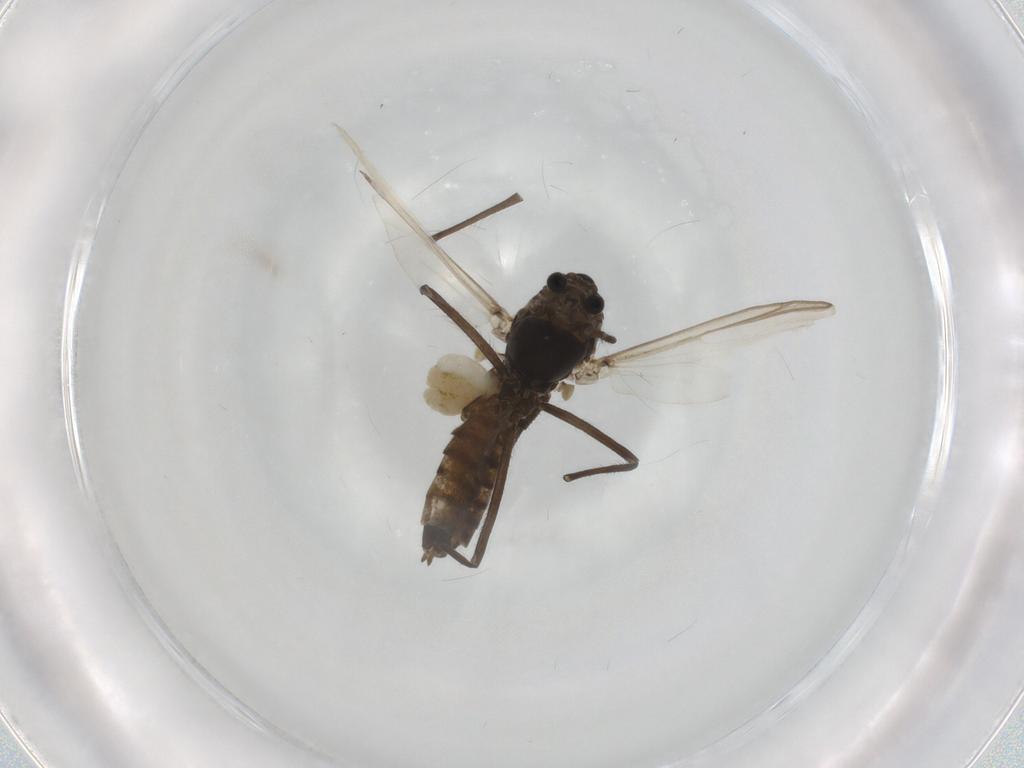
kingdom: Animalia
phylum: Arthropoda
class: Insecta
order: Diptera
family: Chironomidae
